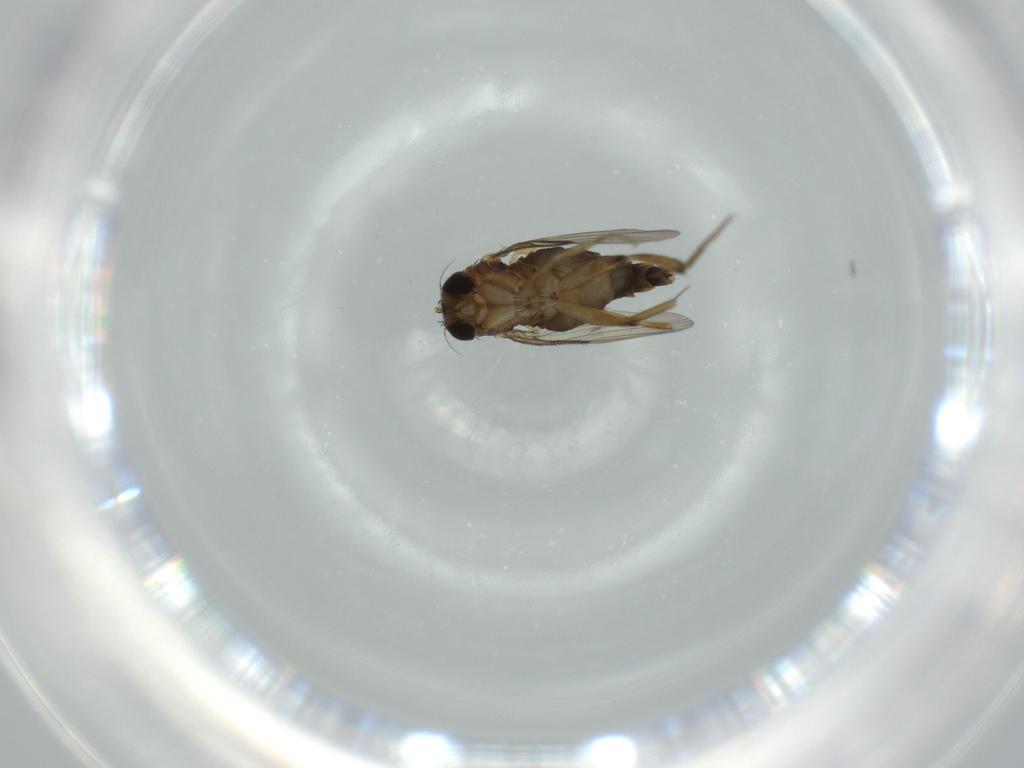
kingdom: Animalia
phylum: Arthropoda
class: Insecta
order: Diptera
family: Phoridae
